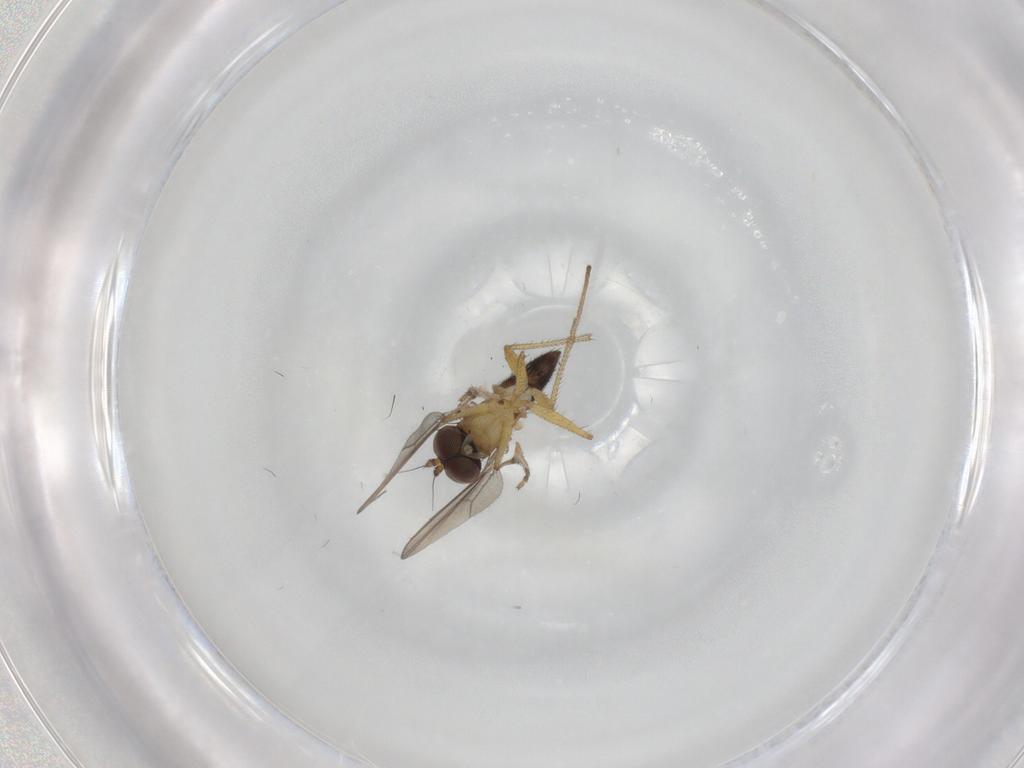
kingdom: Animalia
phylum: Arthropoda
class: Insecta
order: Diptera
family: Dolichopodidae
